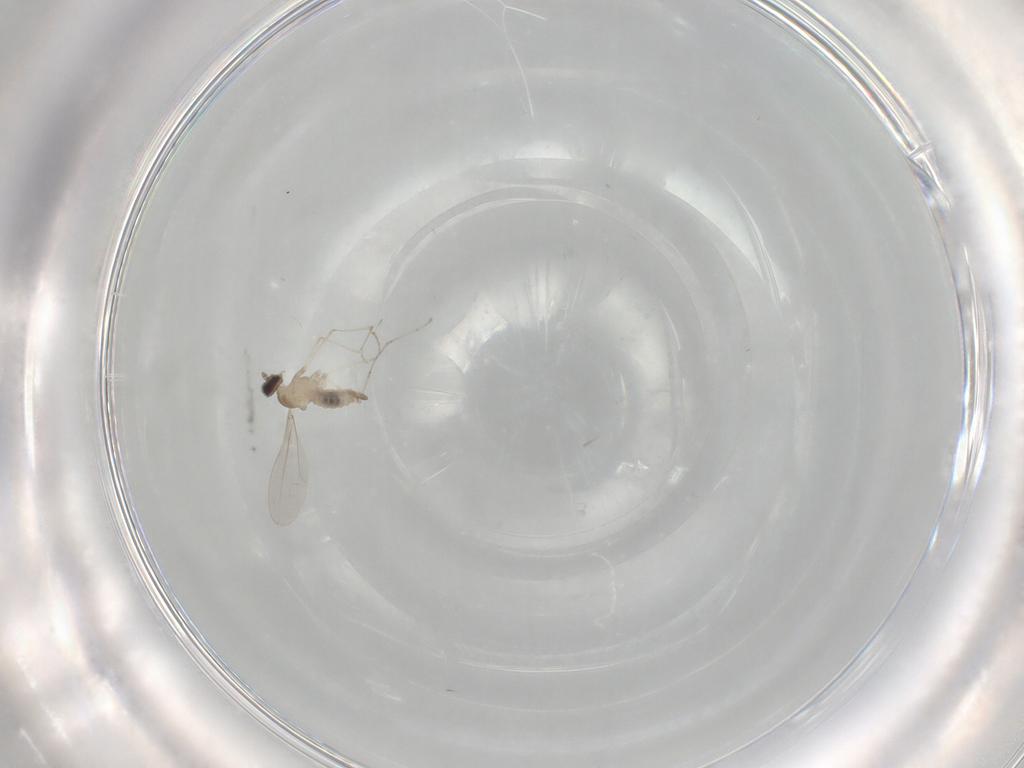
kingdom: Animalia
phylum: Arthropoda
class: Insecta
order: Diptera
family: Cecidomyiidae
